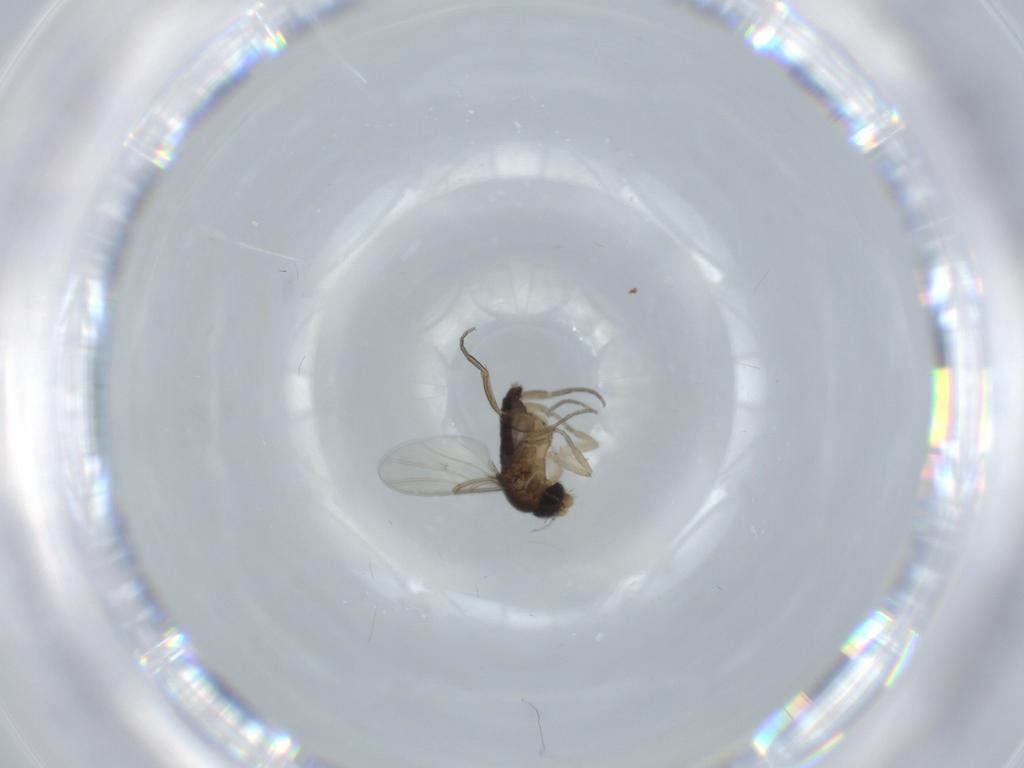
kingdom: Animalia
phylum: Arthropoda
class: Insecta
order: Diptera
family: Phoridae
